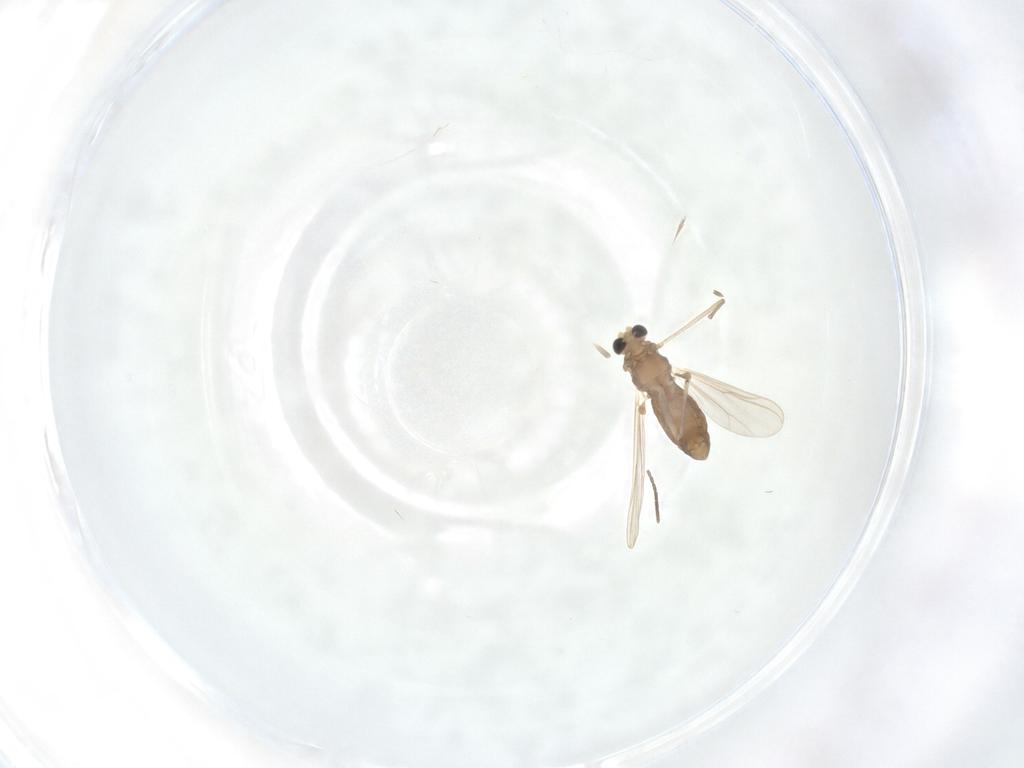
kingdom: Animalia
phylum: Arthropoda
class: Insecta
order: Diptera
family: Chironomidae
